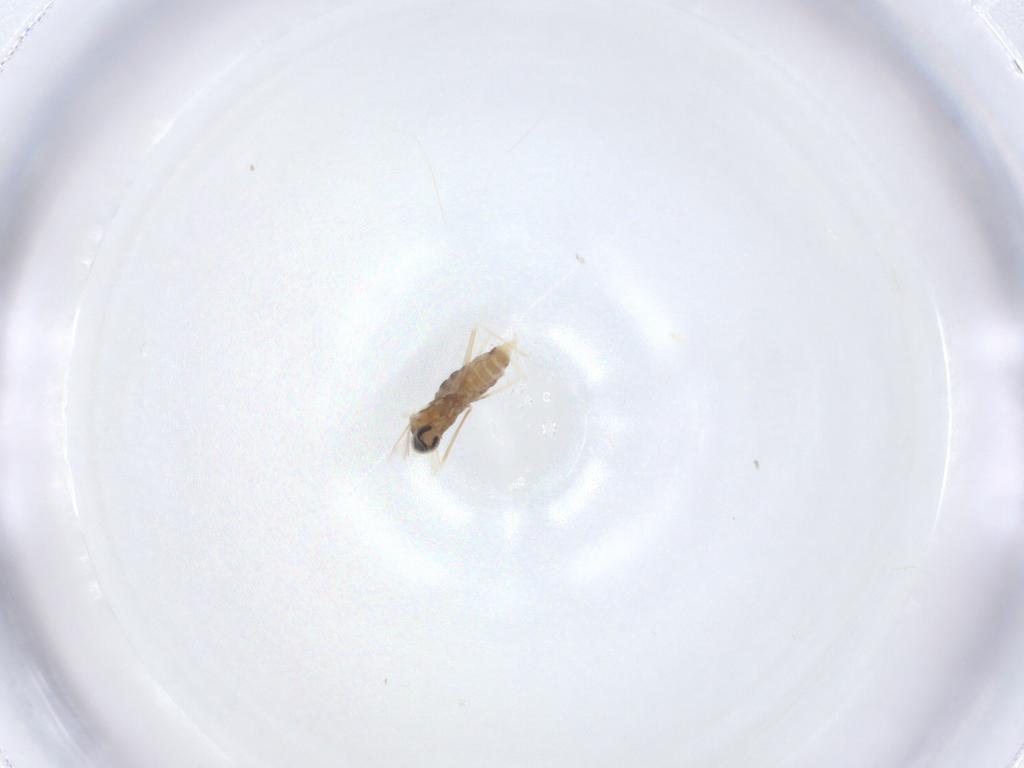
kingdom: Animalia
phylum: Arthropoda
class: Insecta
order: Diptera
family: Cecidomyiidae
